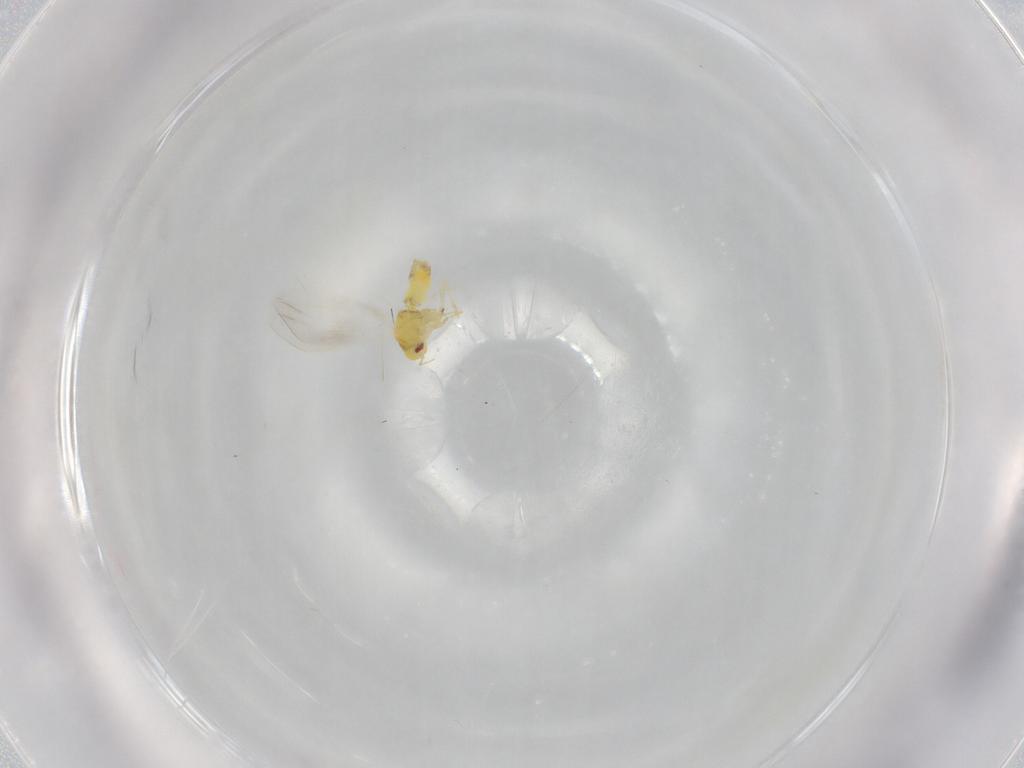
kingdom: Animalia
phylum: Arthropoda
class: Insecta
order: Hemiptera
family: Aleyrodidae
